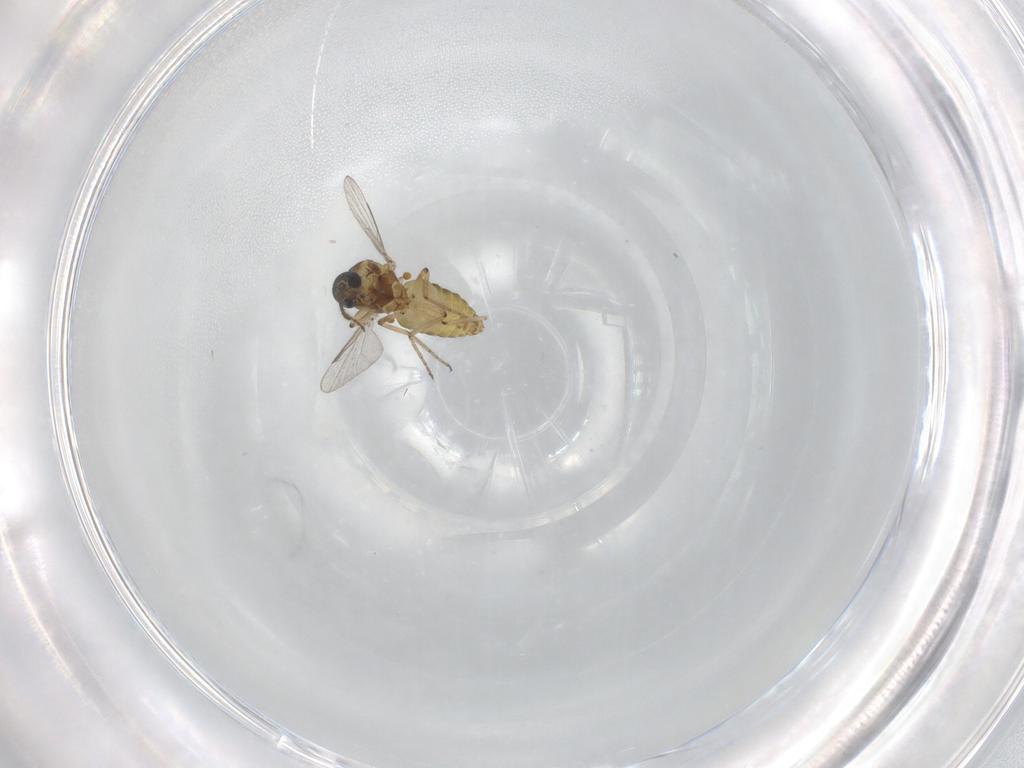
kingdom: Animalia
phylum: Arthropoda
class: Insecta
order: Diptera
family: Ceratopogonidae
